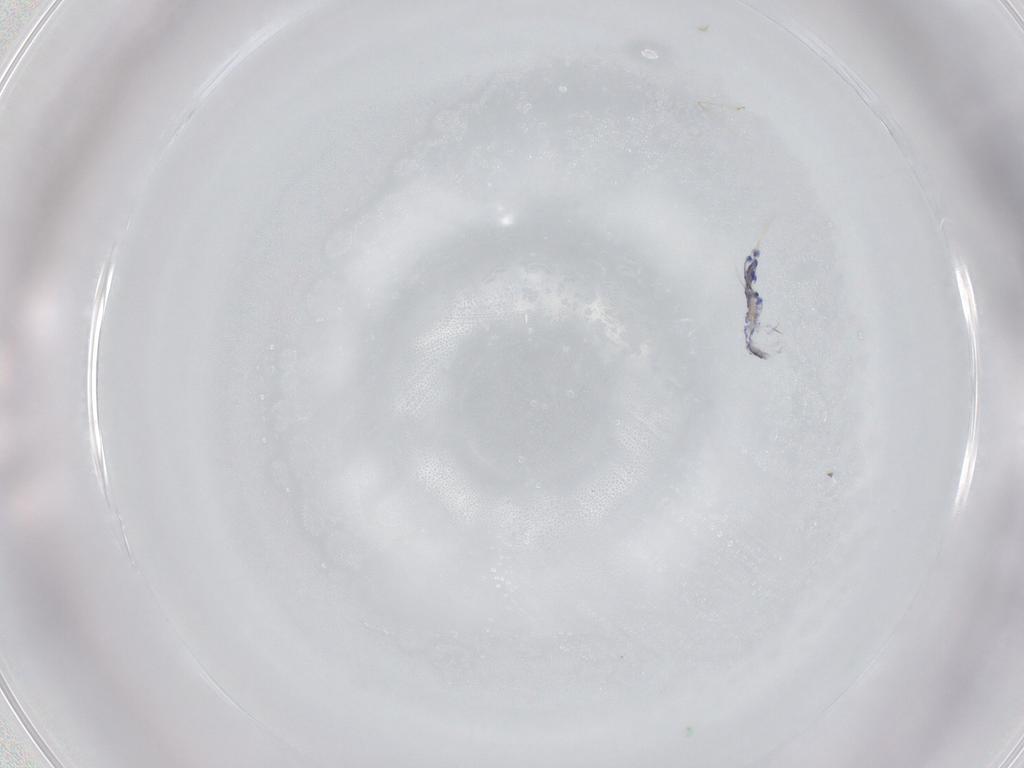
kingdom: Animalia
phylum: Arthropoda
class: Collembola
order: Entomobryomorpha
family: Entomobryidae
